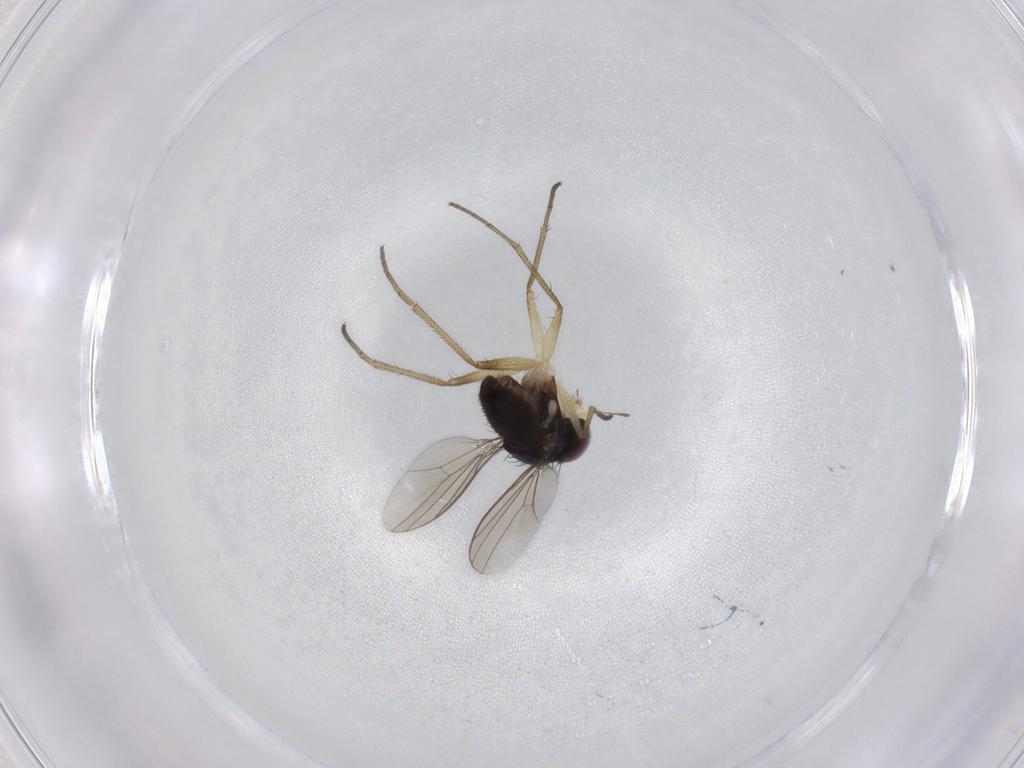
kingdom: Animalia
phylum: Arthropoda
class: Insecta
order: Diptera
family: Dolichopodidae
